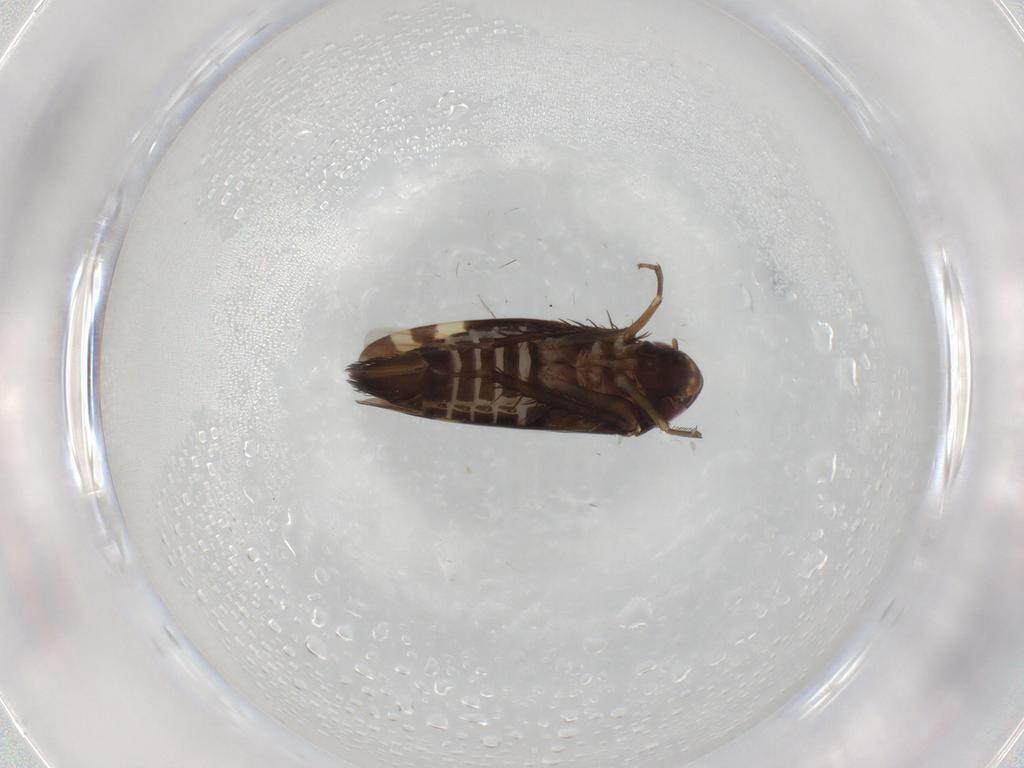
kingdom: Animalia
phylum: Arthropoda
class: Insecta
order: Hemiptera
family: Cicadellidae
